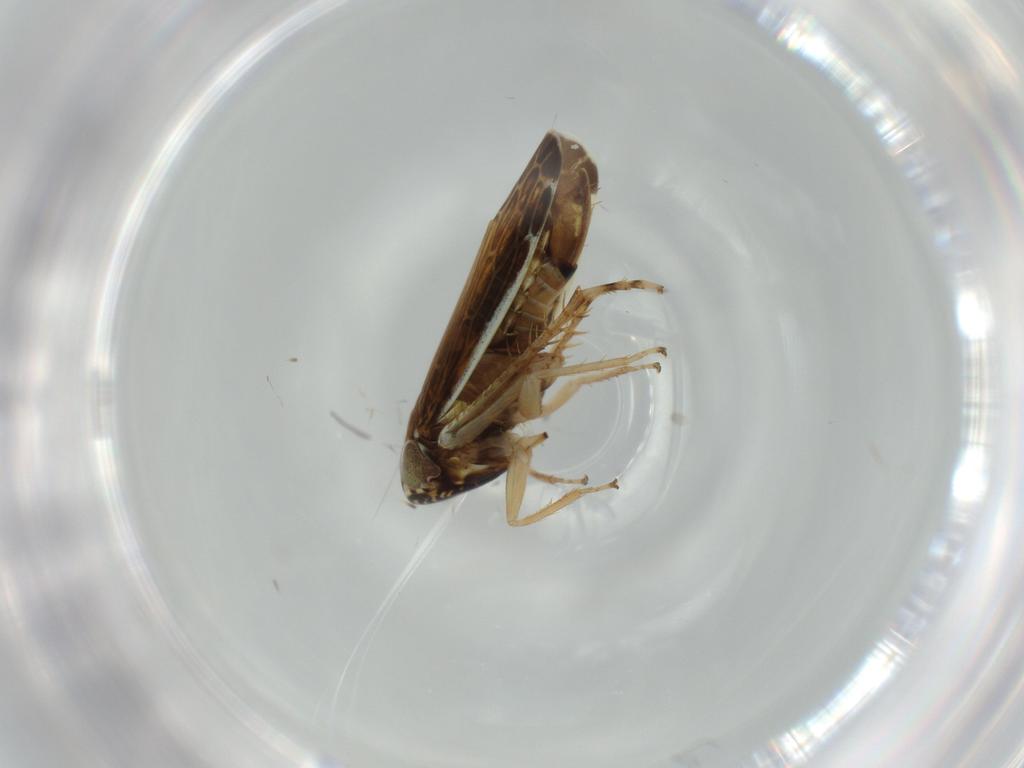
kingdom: Animalia
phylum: Arthropoda
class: Insecta
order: Hemiptera
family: Cicadellidae
